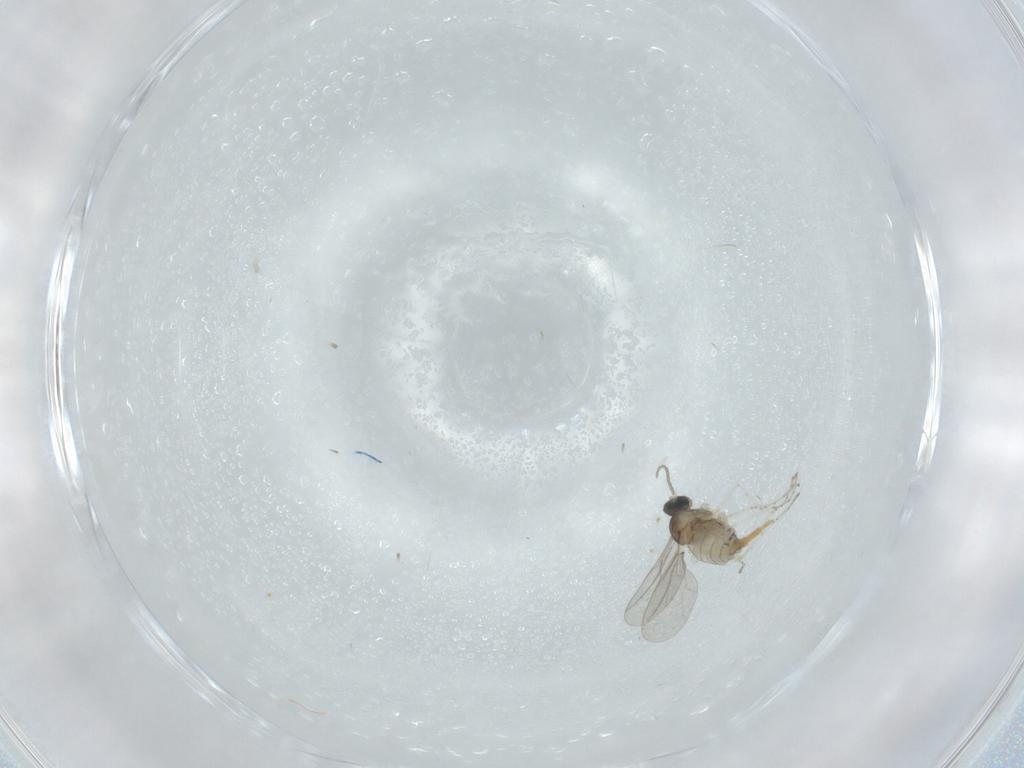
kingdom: Animalia
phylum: Arthropoda
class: Insecta
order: Diptera
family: Cecidomyiidae
